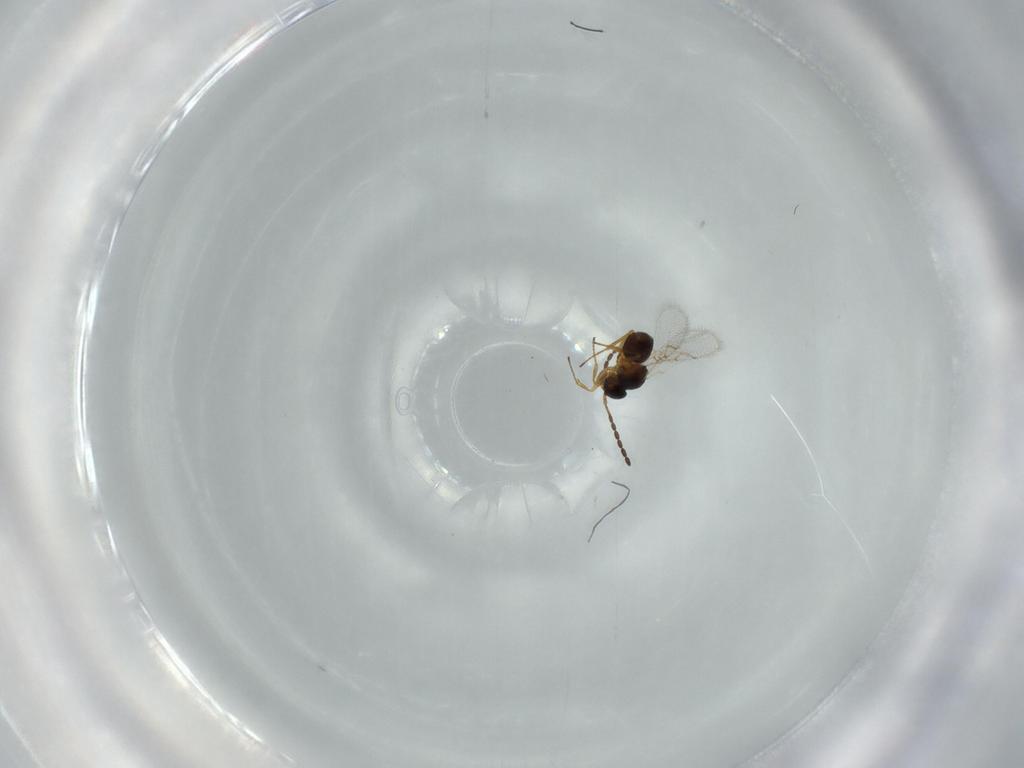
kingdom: Animalia
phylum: Arthropoda
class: Insecta
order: Hymenoptera
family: Figitidae
